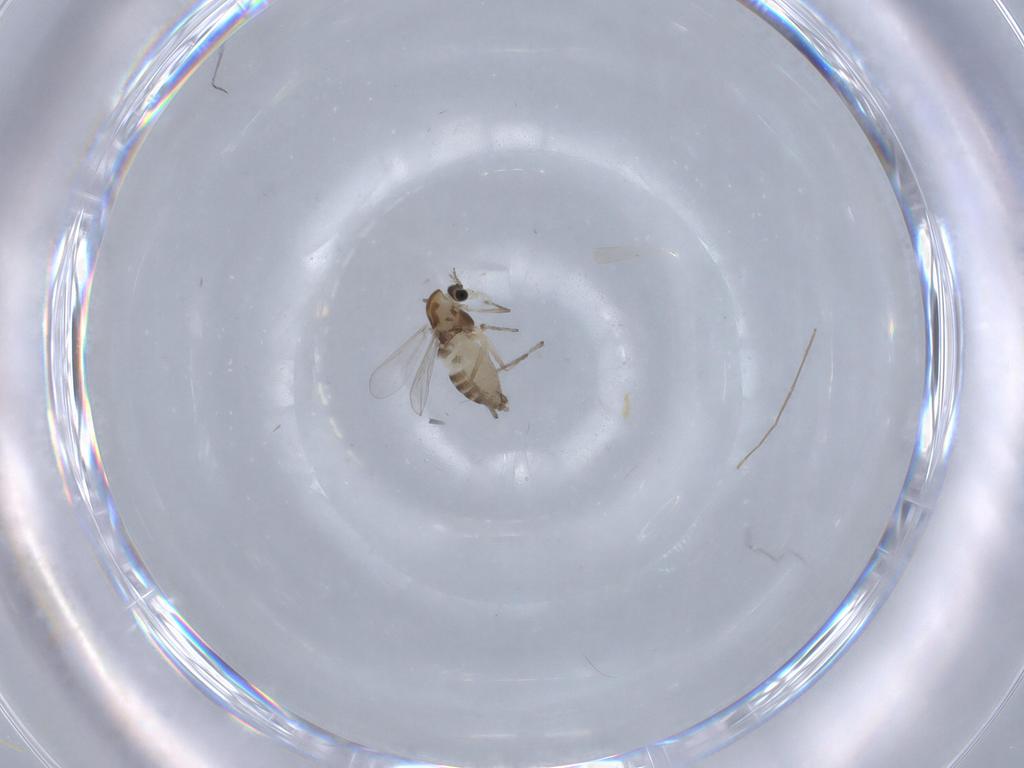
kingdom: Animalia
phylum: Arthropoda
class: Insecta
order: Diptera
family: Chironomidae
